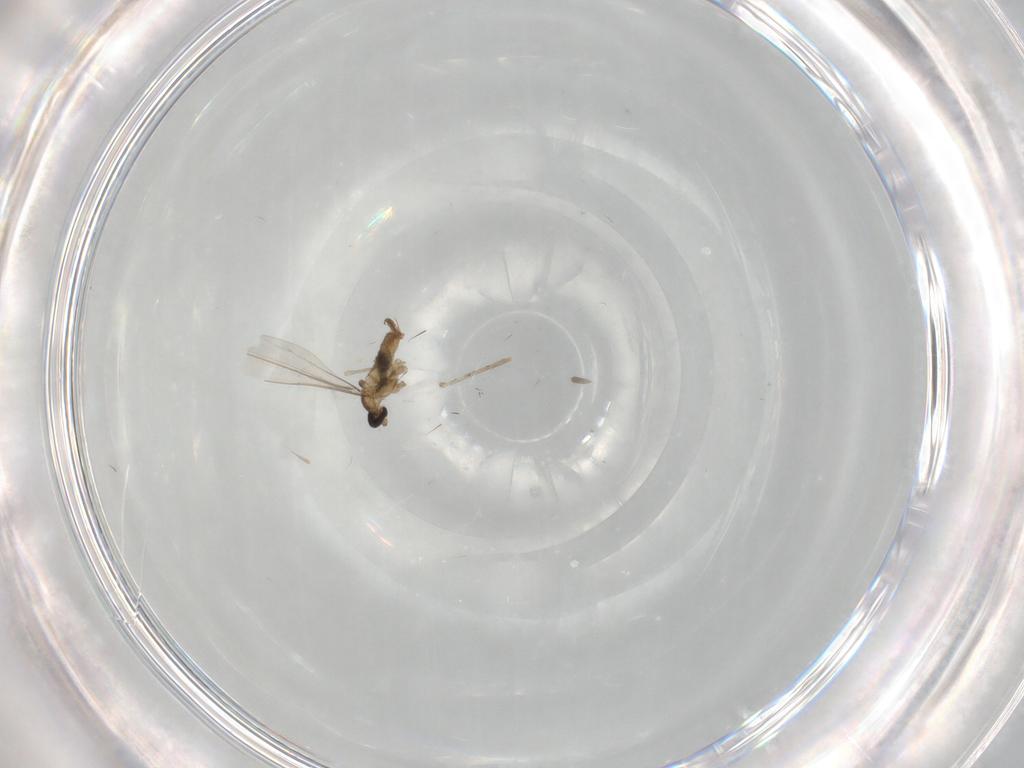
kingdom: Animalia
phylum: Arthropoda
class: Insecta
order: Diptera
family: Cecidomyiidae
